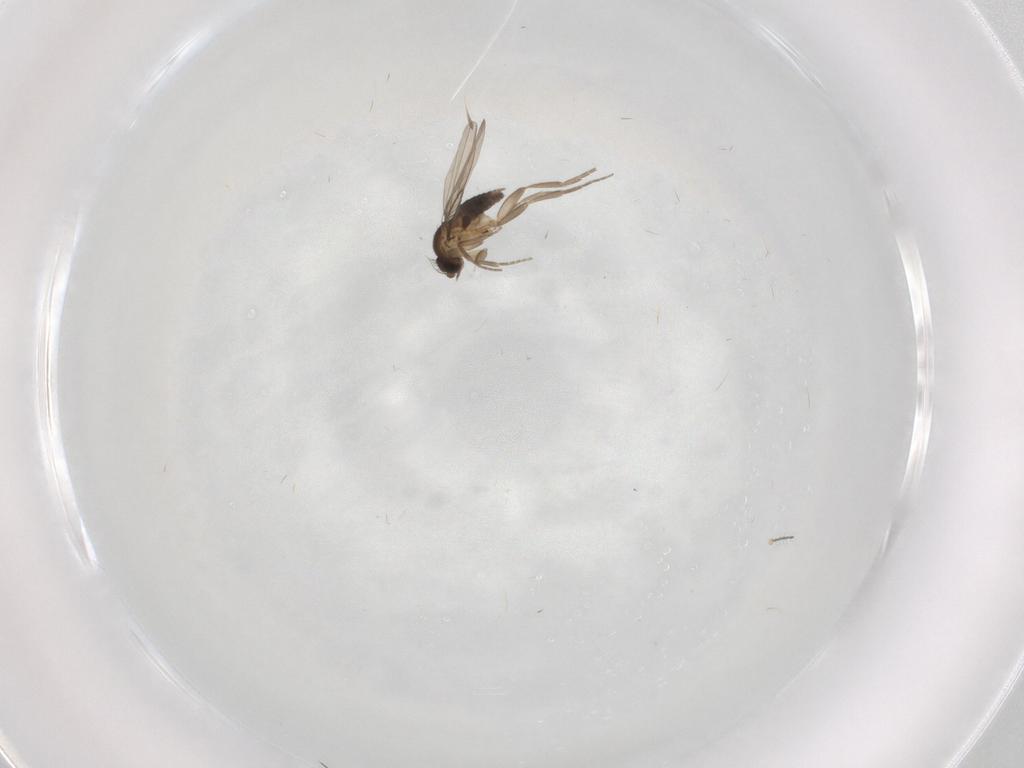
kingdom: Animalia
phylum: Arthropoda
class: Insecta
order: Diptera
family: Phoridae
